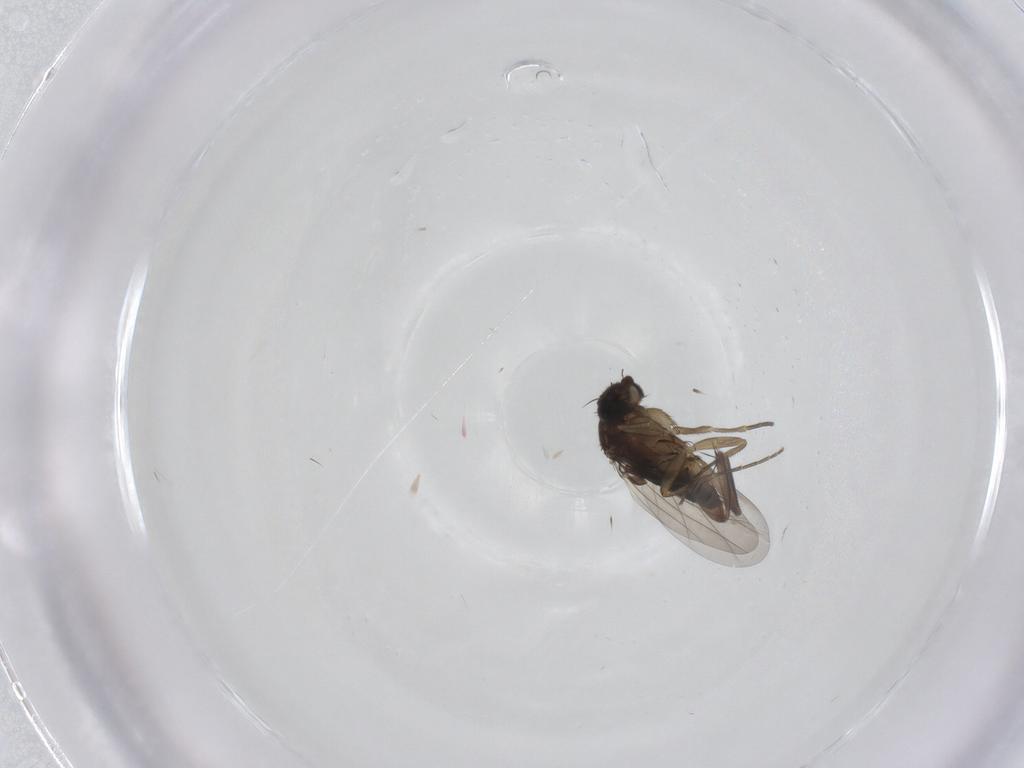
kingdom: Animalia
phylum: Arthropoda
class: Insecta
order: Diptera
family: Phoridae
